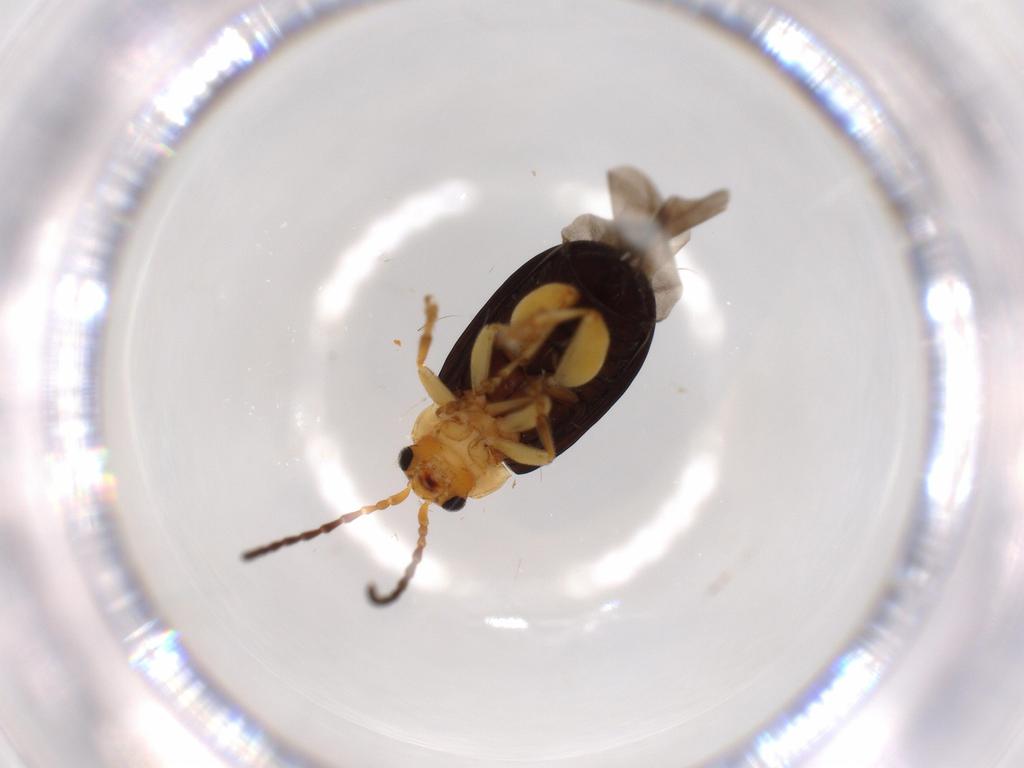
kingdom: Animalia
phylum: Arthropoda
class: Insecta
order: Coleoptera
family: Chrysomelidae
